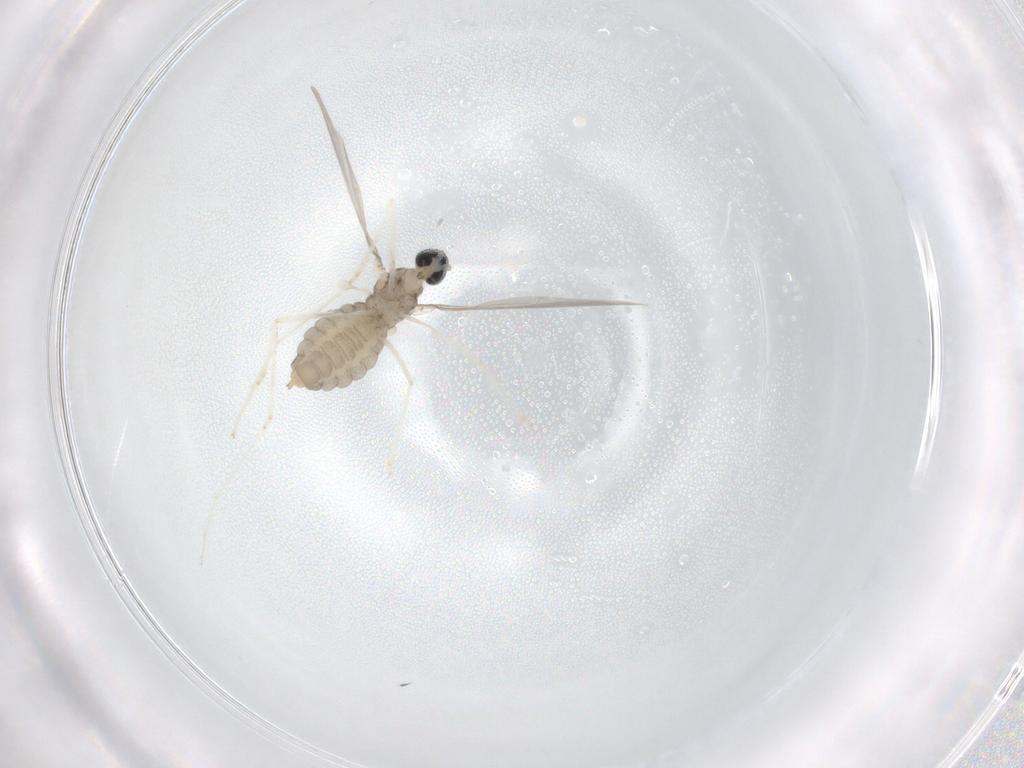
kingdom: Animalia
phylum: Arthropoda
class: Insecta
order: Diptera
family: Cecidomyiidae
